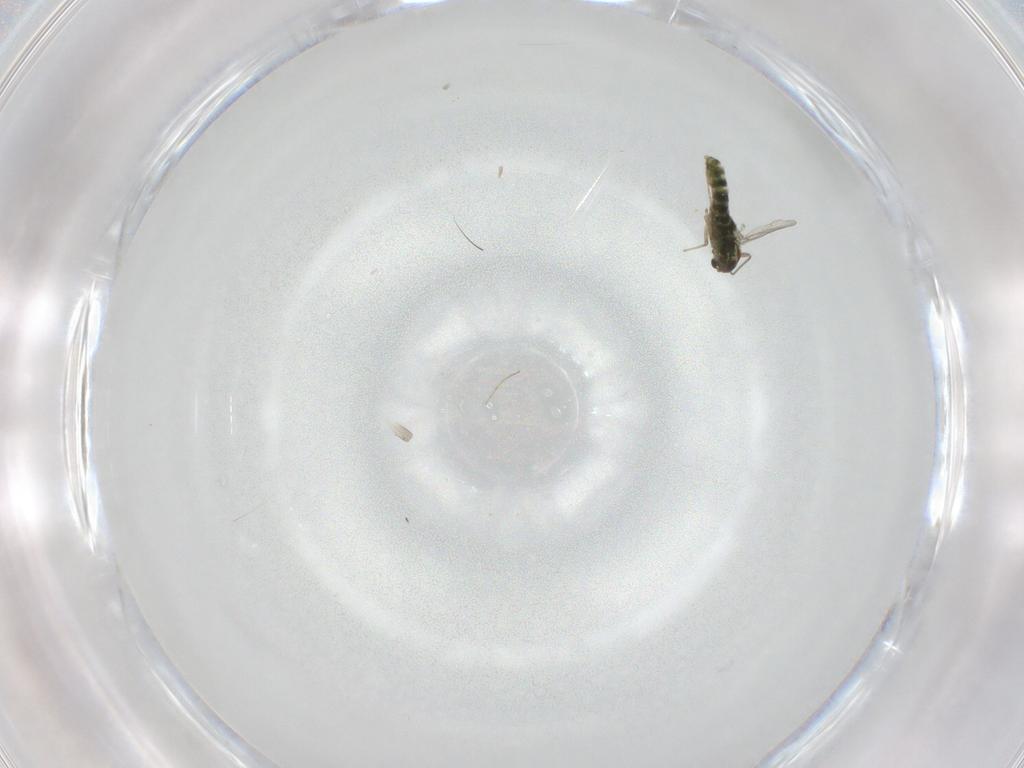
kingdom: Animalia
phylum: Arthropoda
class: Insecta
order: Diptera
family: Chironomidae
